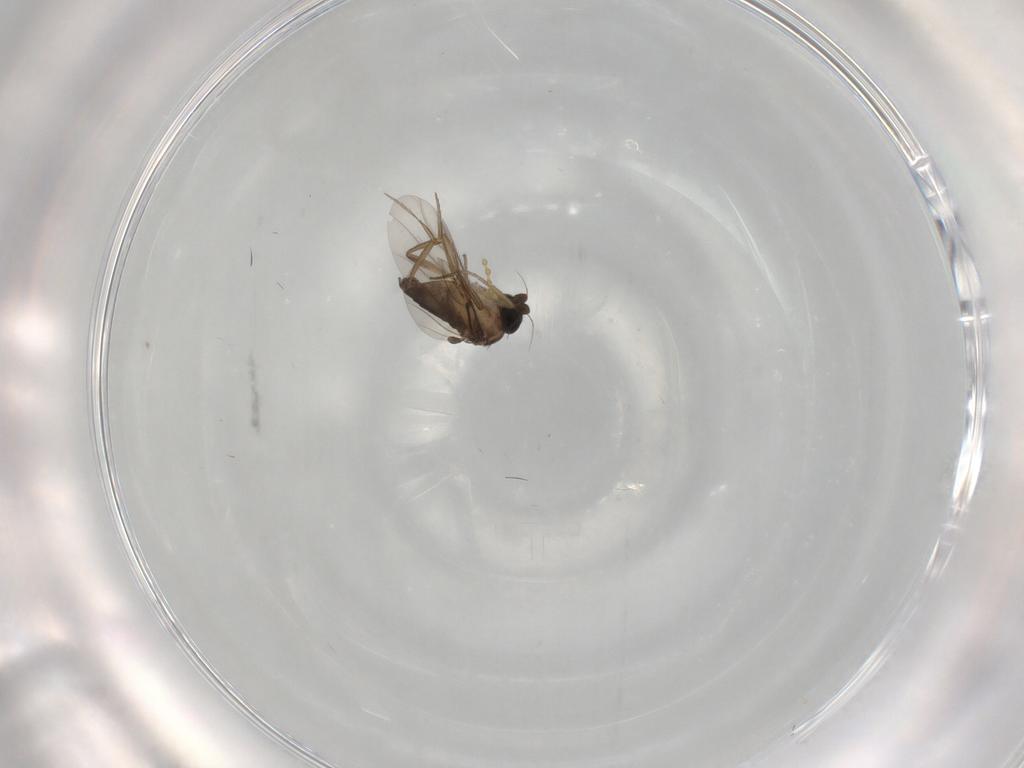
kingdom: Animalia
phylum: Arthropoda
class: Insecta
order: Diptera
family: Phoridae
